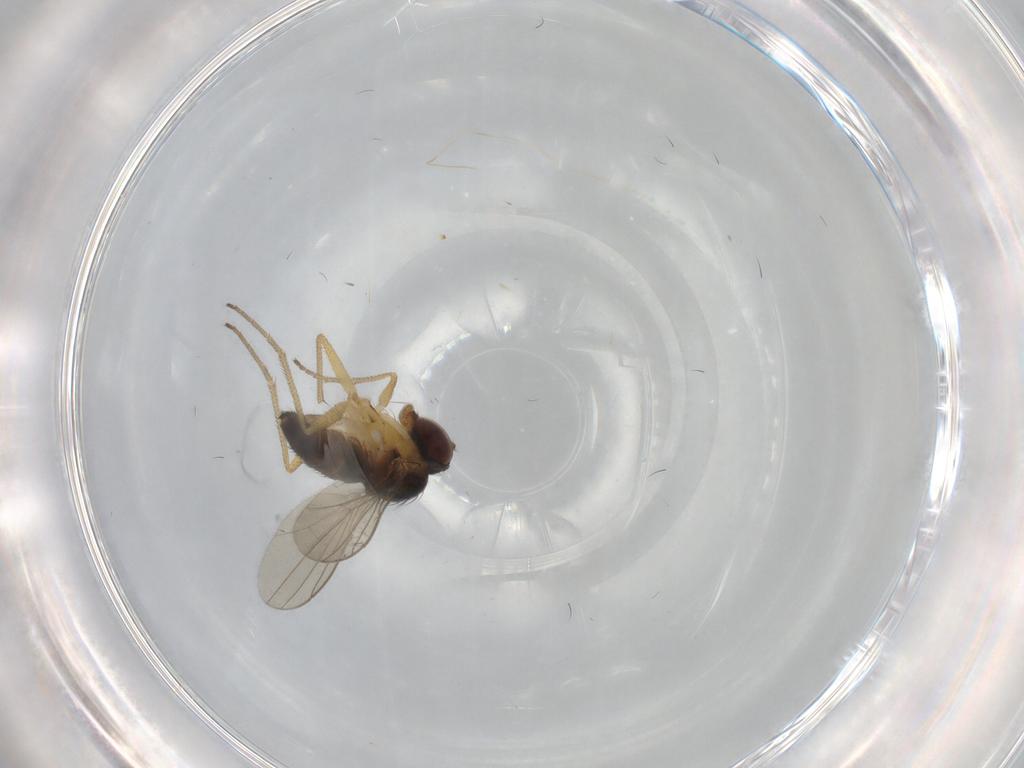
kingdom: Animalia
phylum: Arthropoda
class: Insecta
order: Diptera
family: Dolichopodidae
